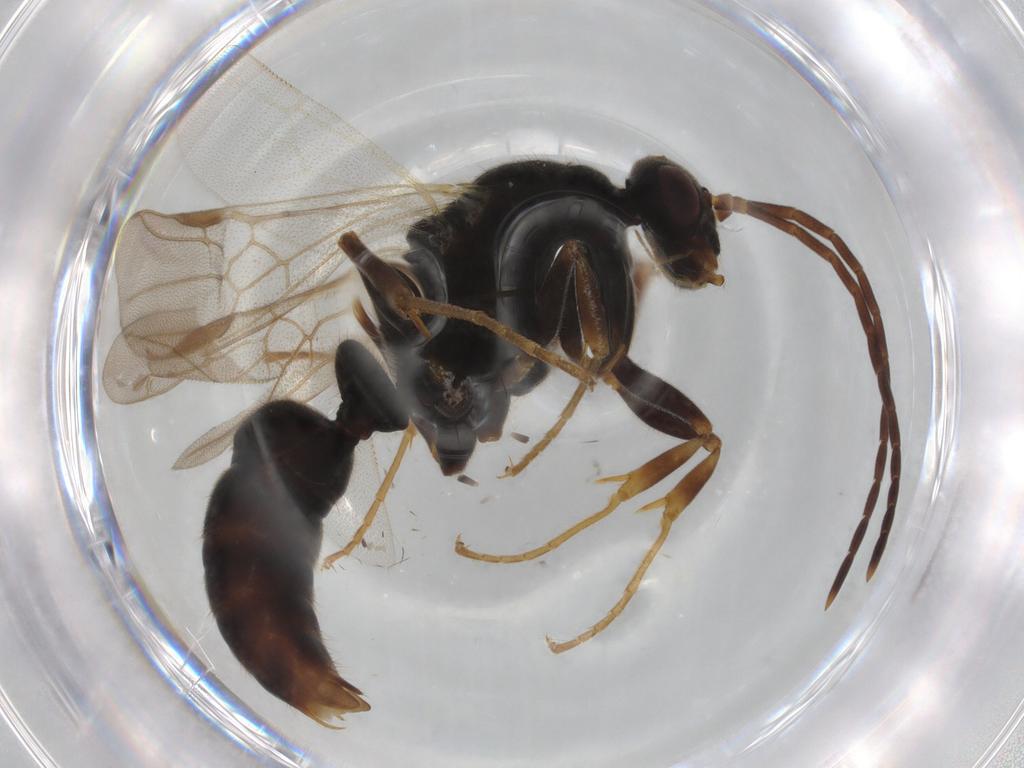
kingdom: Animalia
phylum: Arthropoda
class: Insecta
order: Hymenoptera
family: Formicidae
